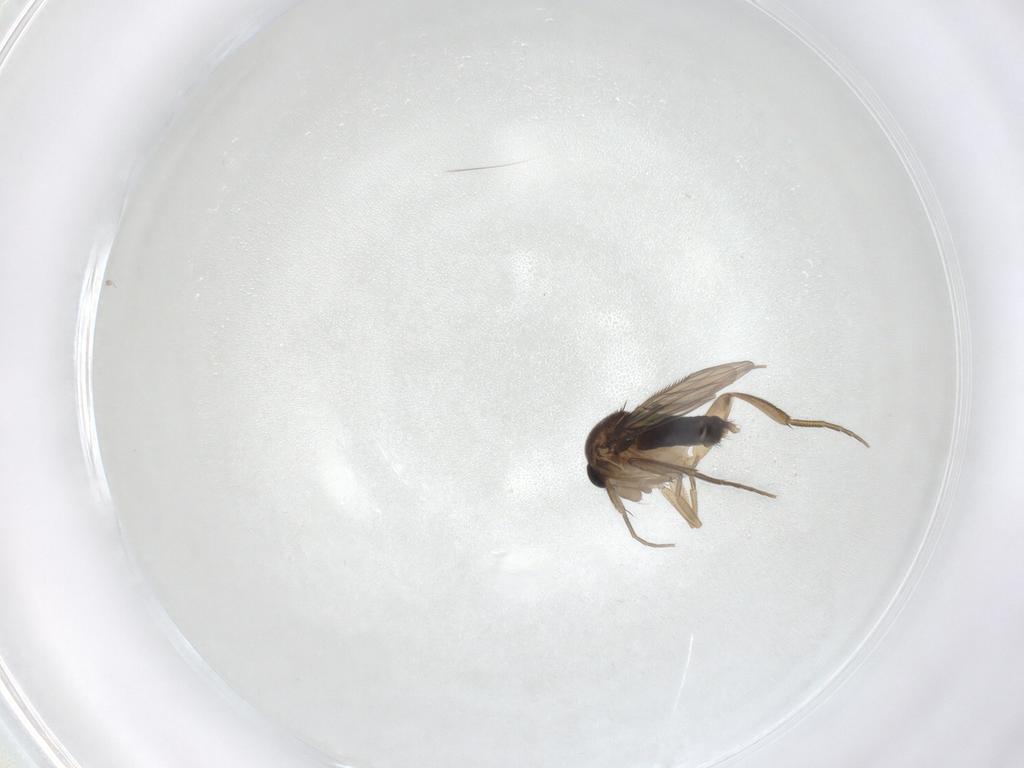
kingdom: Animalia
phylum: Arthropoda
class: Insecta
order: Diptera
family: Phoridae
